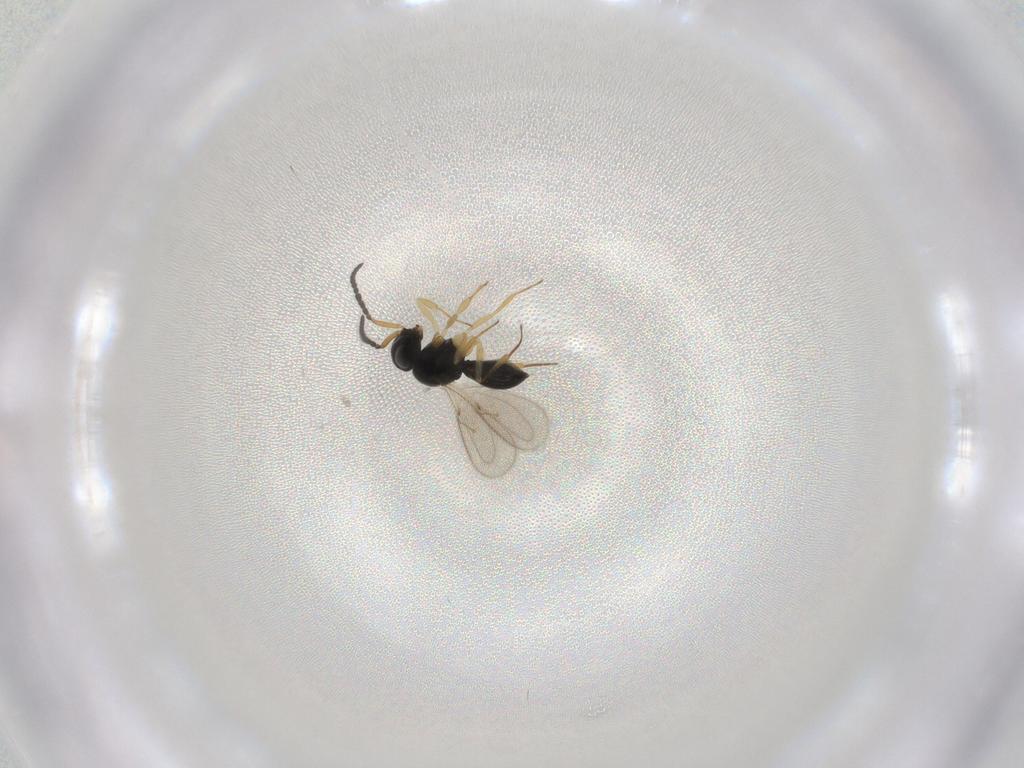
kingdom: Animalia
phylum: Arthropoda
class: Insecta
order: Hymenoptera
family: Scelionidae
